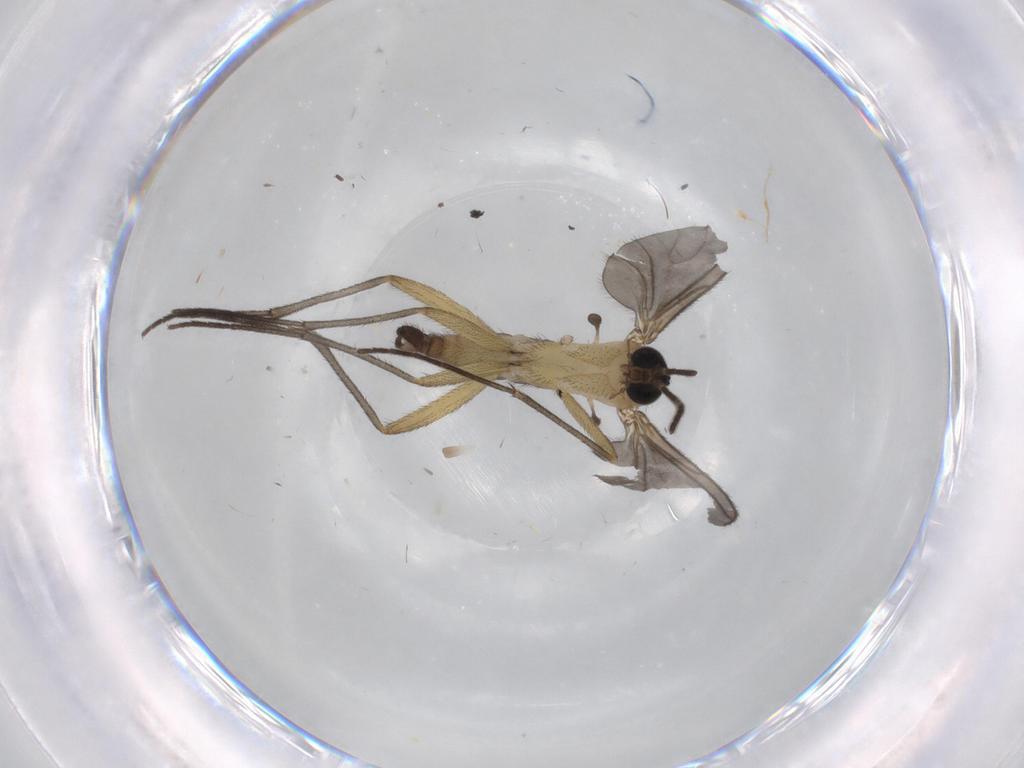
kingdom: Animalia
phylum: Arthropoda
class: Insecta
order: Diptera
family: Sciaridae
